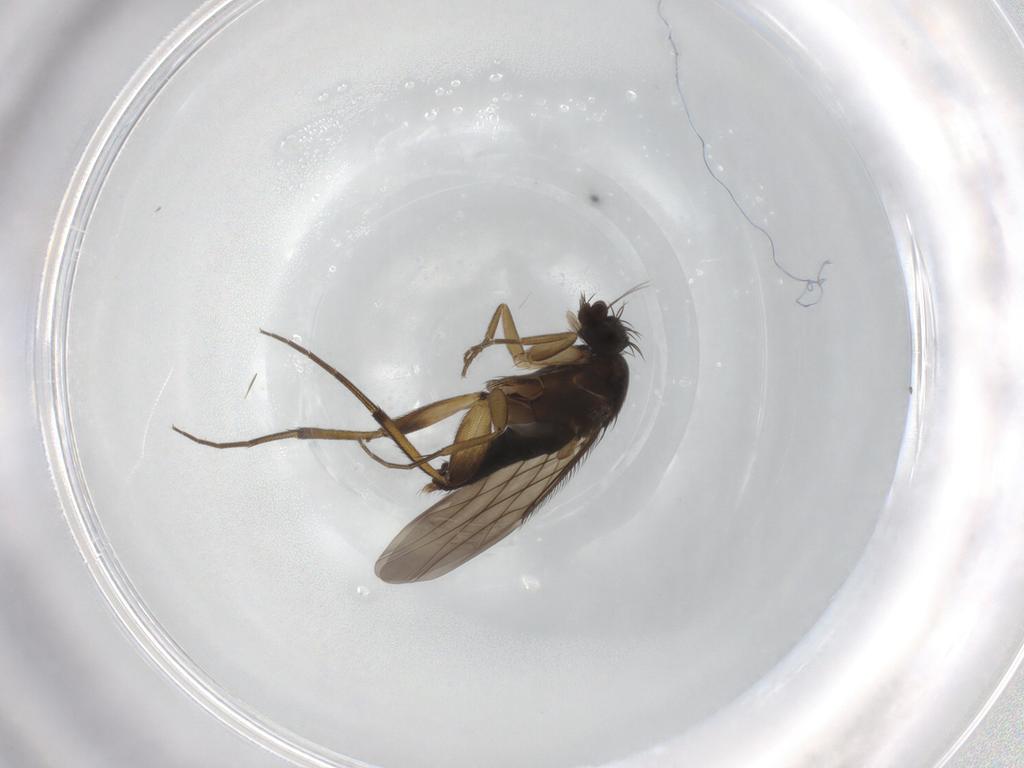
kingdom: Animalia
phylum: Arthropoda
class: Insecta
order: Diptera
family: Phoridae
